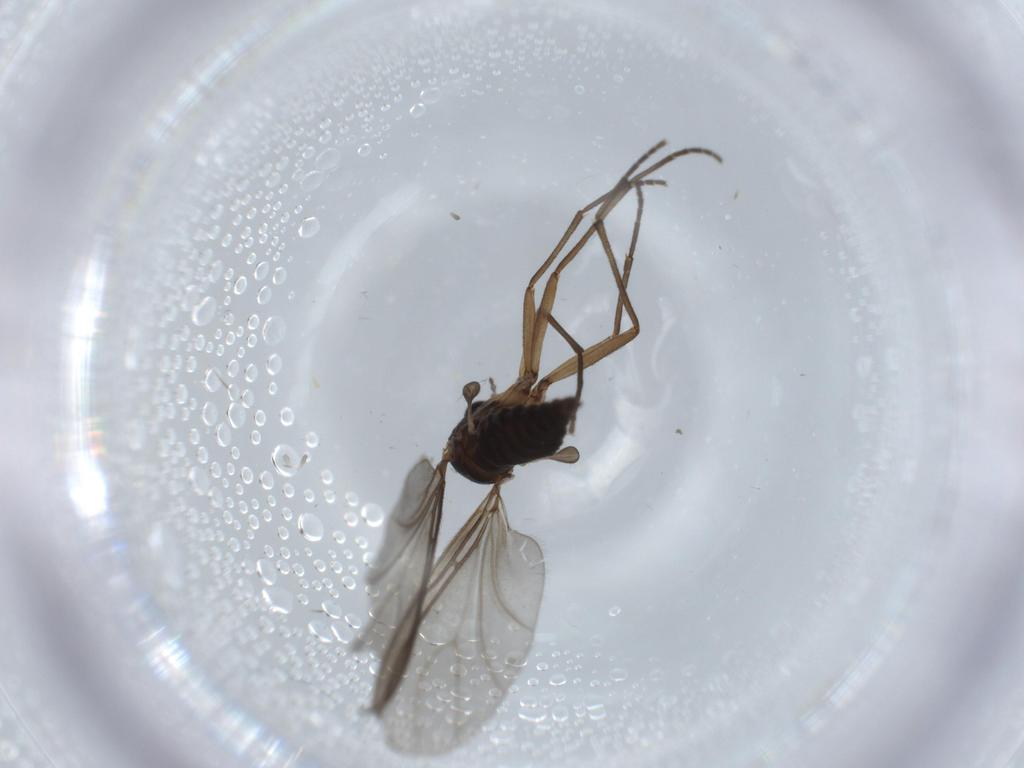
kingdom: Animalia
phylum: Arthropoda
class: Insecta
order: Diptera
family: Sciaridae
